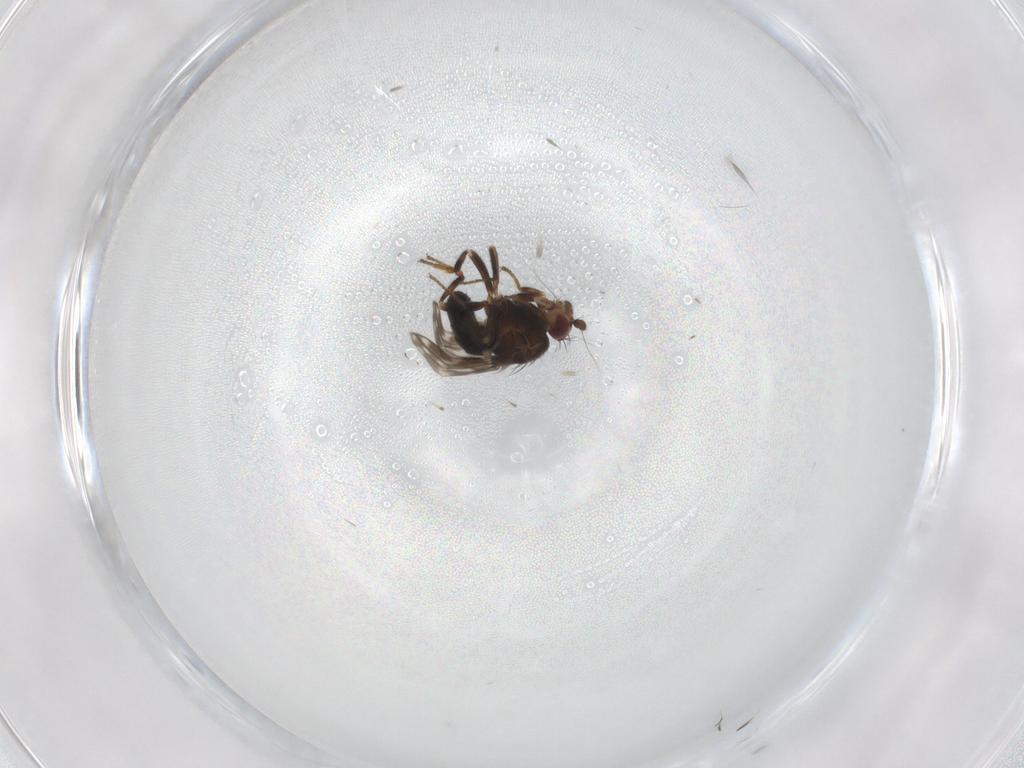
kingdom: Animalia
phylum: Arthropoda
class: Insecta
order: Diptera
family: Sphaeroceridae
